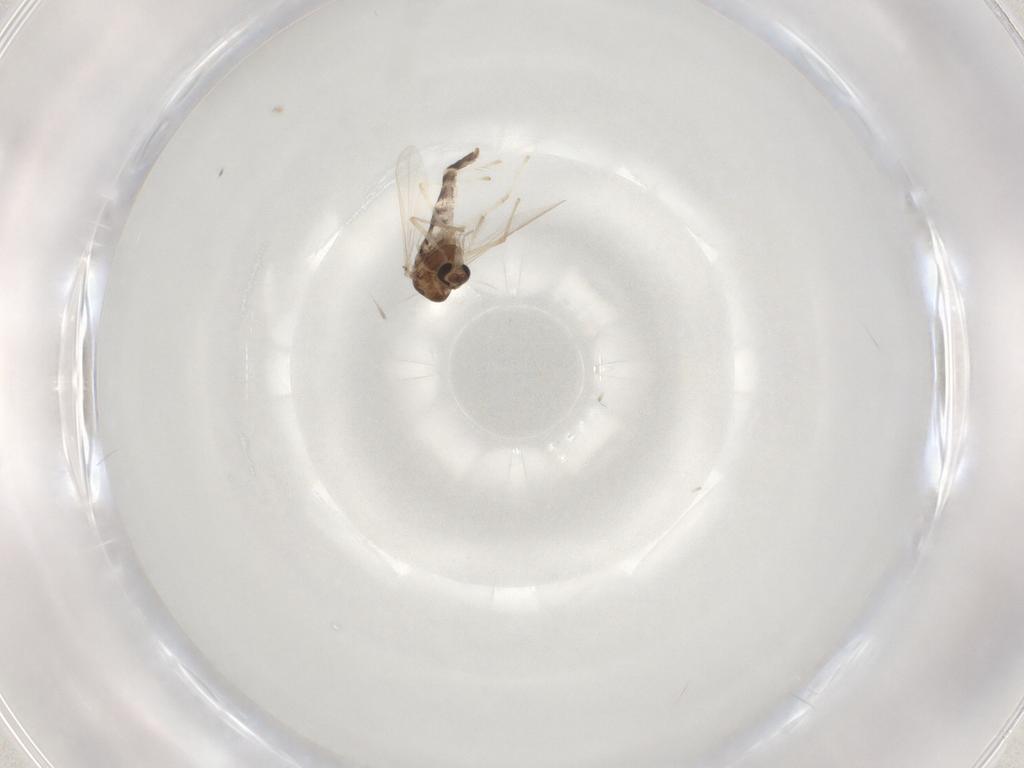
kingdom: Animalia
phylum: Arthropoda
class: Insecta
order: Diptera
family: Chironomidae
